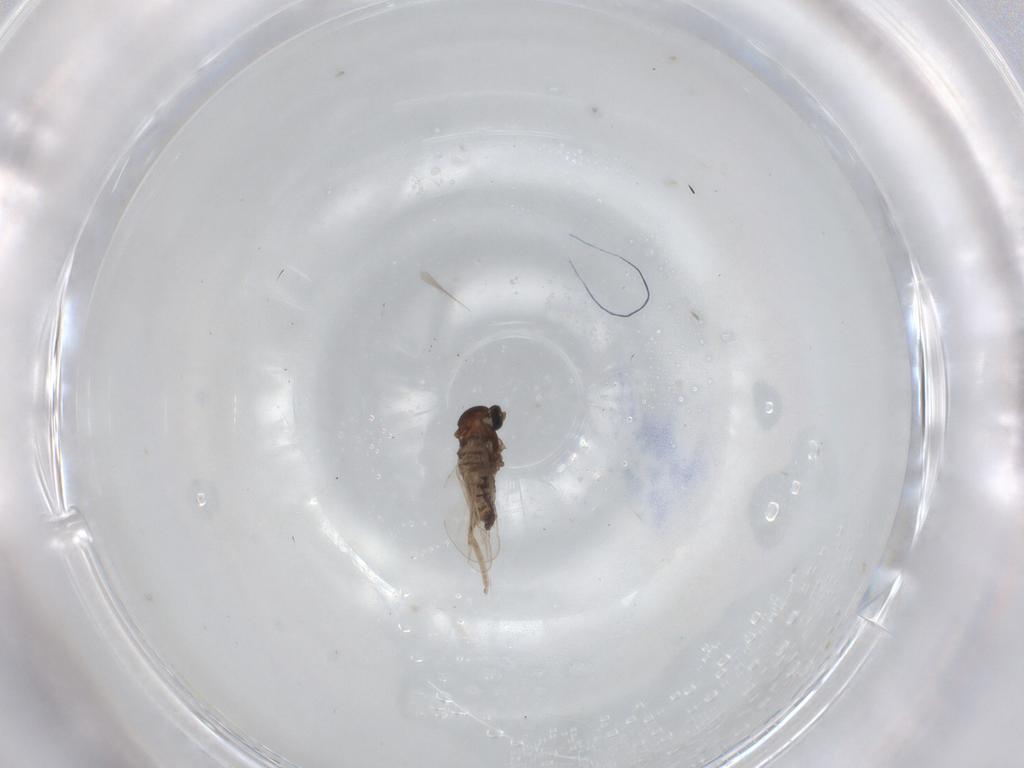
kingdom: Animalia
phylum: Arthropoda
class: Insecta
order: Diptera
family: Cecidomyiidae
